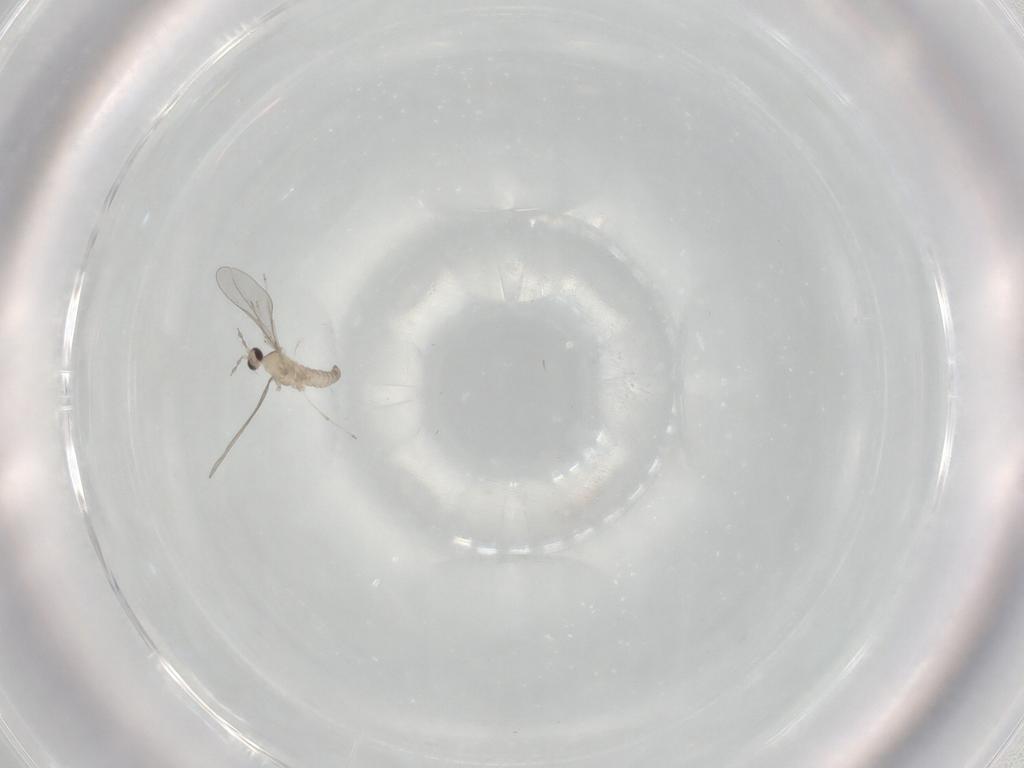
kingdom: Animalia
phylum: Arthropoda
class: Insecta
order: Diptera
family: Cecidomyiidae
